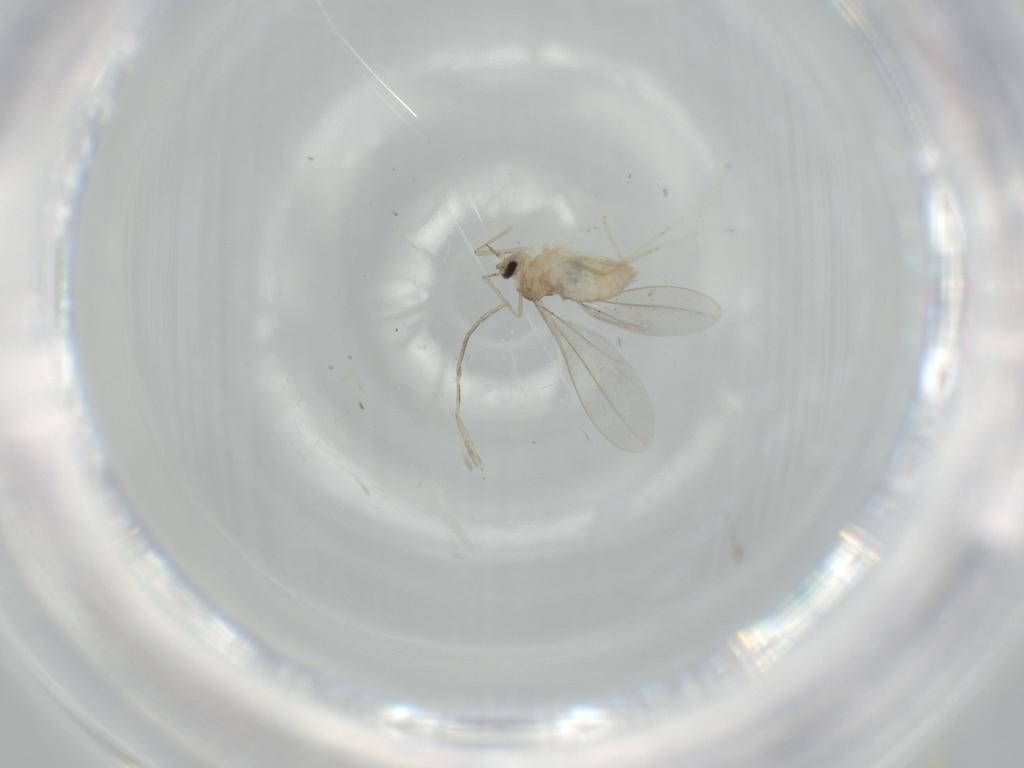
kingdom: Animalia
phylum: Arthropoda
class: Insecta
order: Diptera
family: Cecidomyiidae
